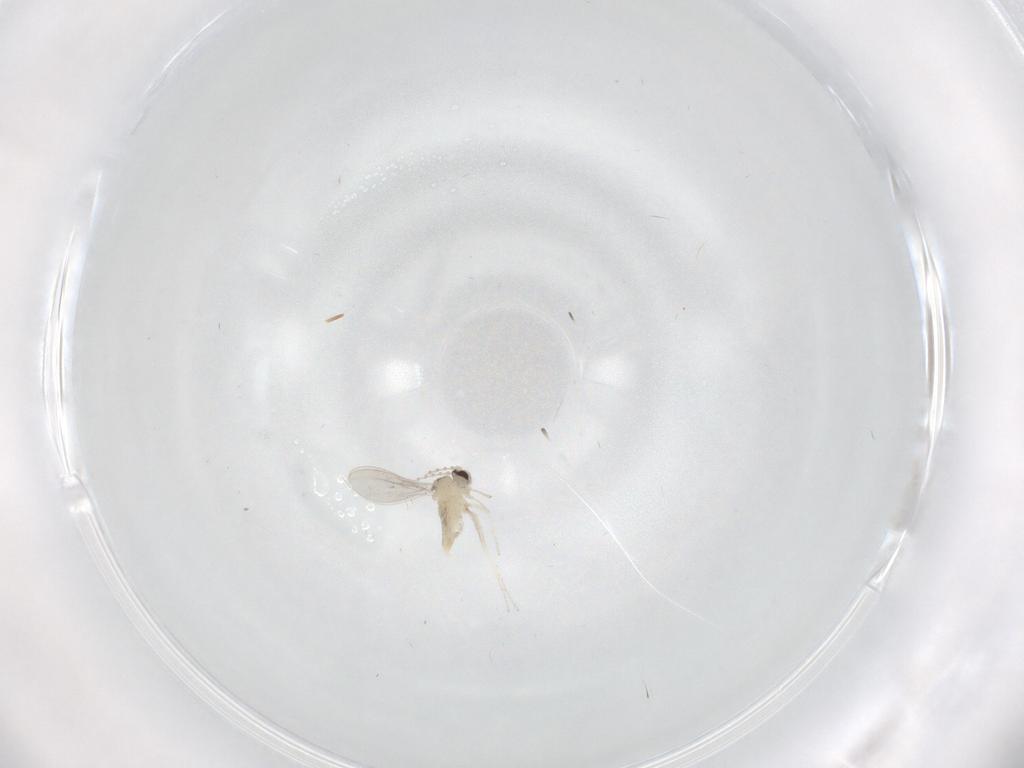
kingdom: Animalia
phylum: Arthropoda
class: Insecta
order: Diptera
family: Cecidomyiidae
